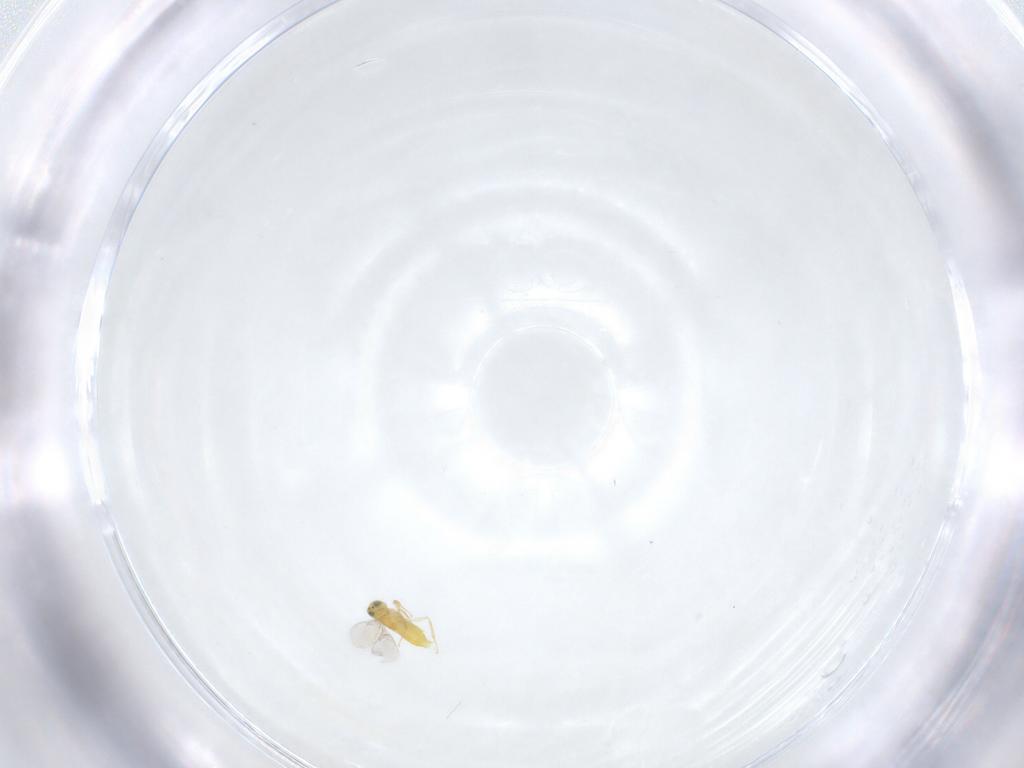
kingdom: Animalia
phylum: Arthropoda
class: Insecta
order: Hymenoptera
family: Aphelinidae
